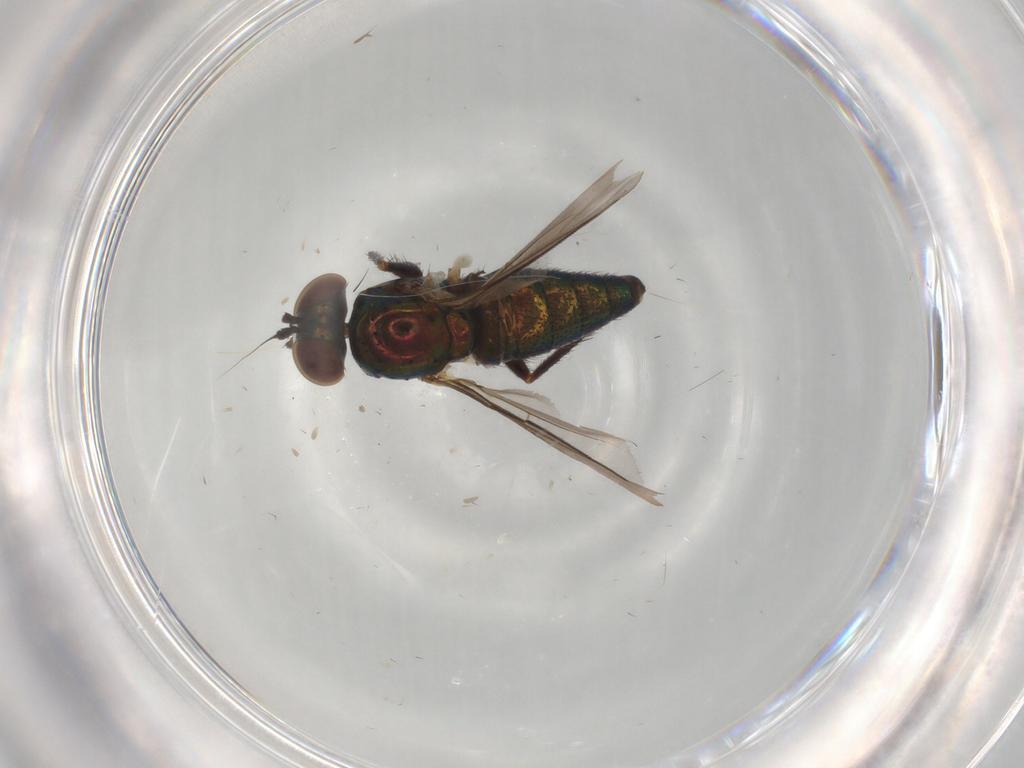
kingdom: Animalia
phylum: Arthropoda
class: Insecta
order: Diptera
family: Dolichopodidae
